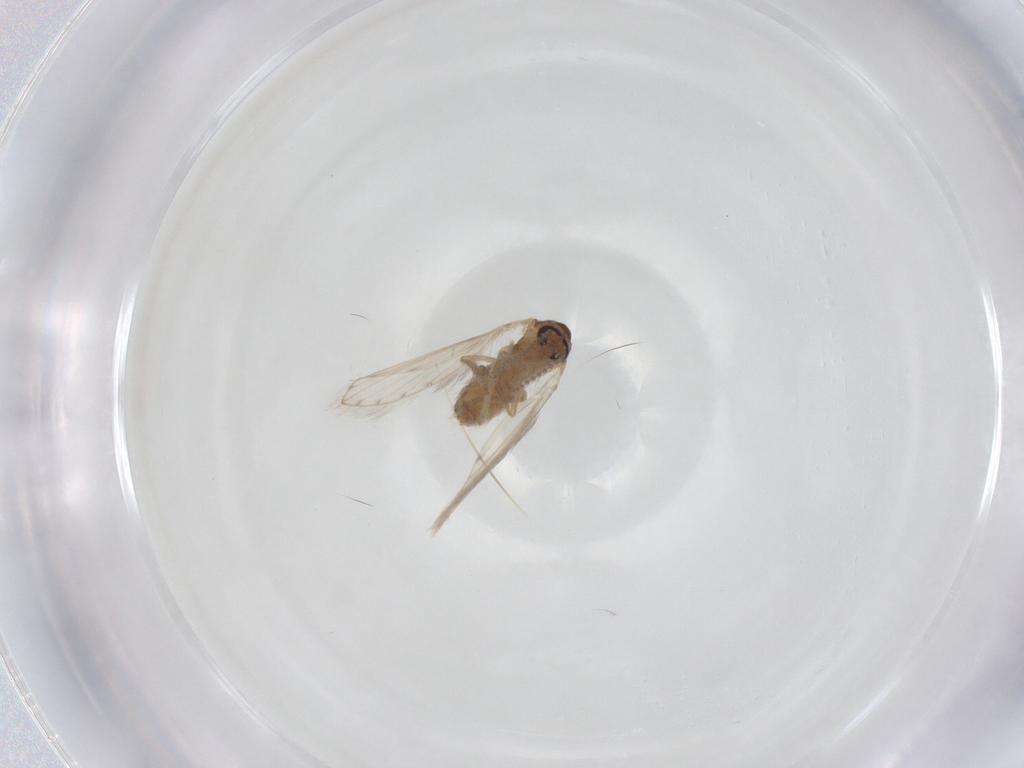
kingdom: Animalia
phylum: Arthropoda
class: Insecta
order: Diptera
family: Psychodidae
